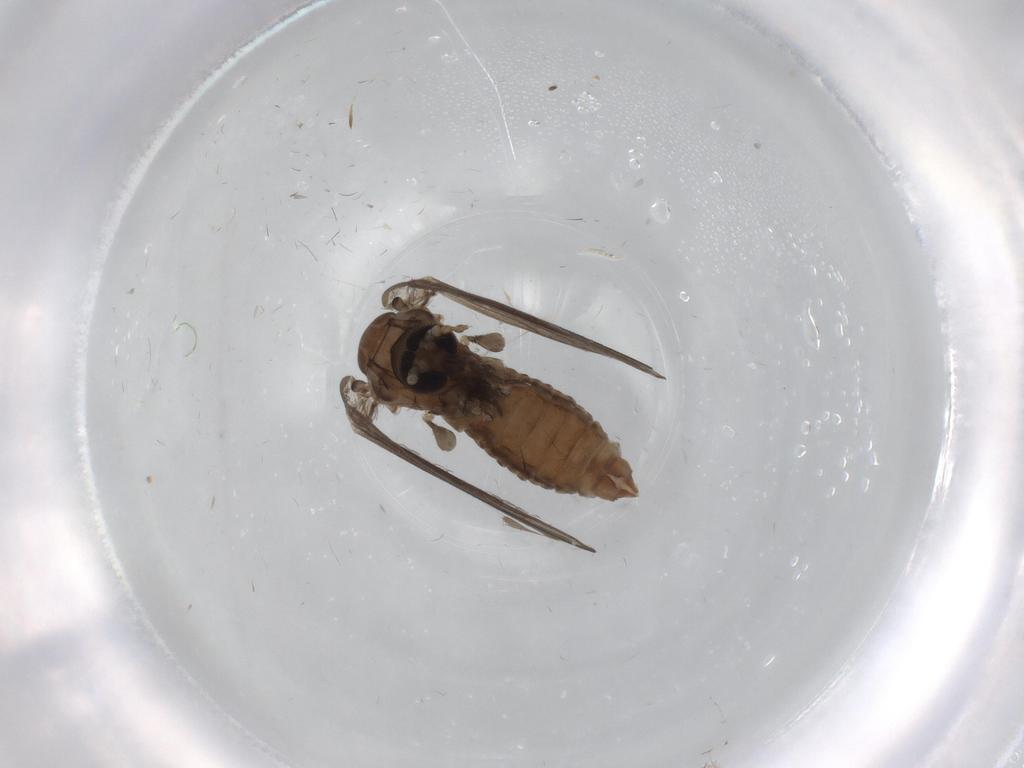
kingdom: Animalia
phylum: Arthropoda
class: Insecta
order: Diptera
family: Psychodidae
